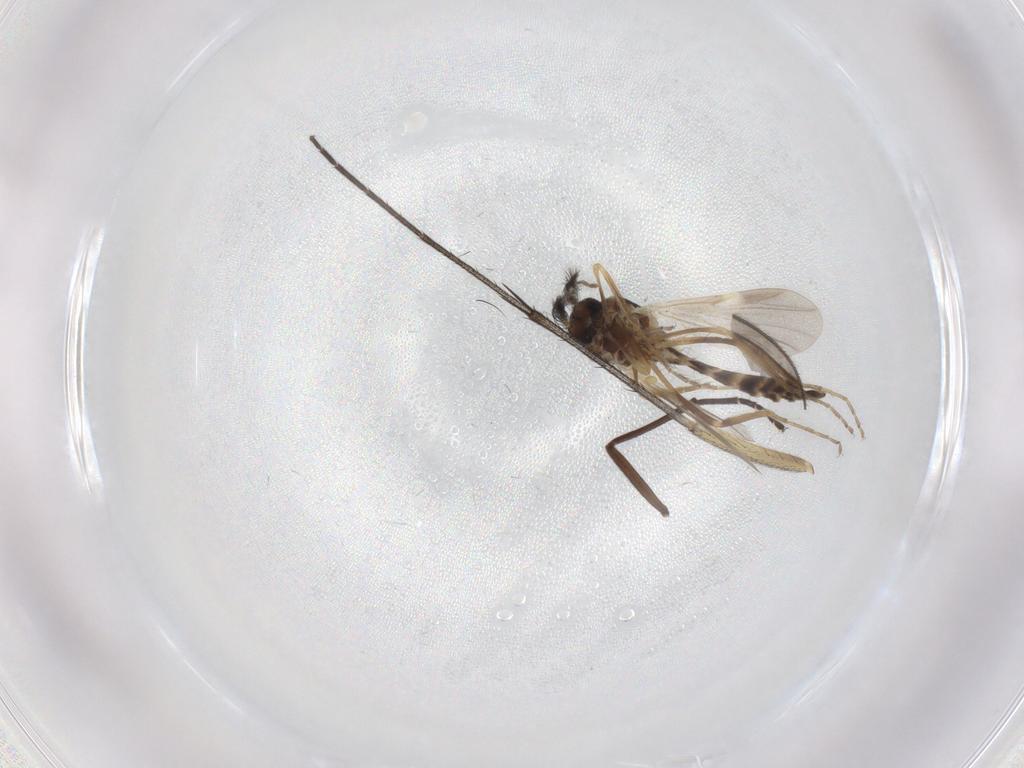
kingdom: Animalia
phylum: Arthropoda
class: Insecta
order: Diptera
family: Ceratopogonidae
